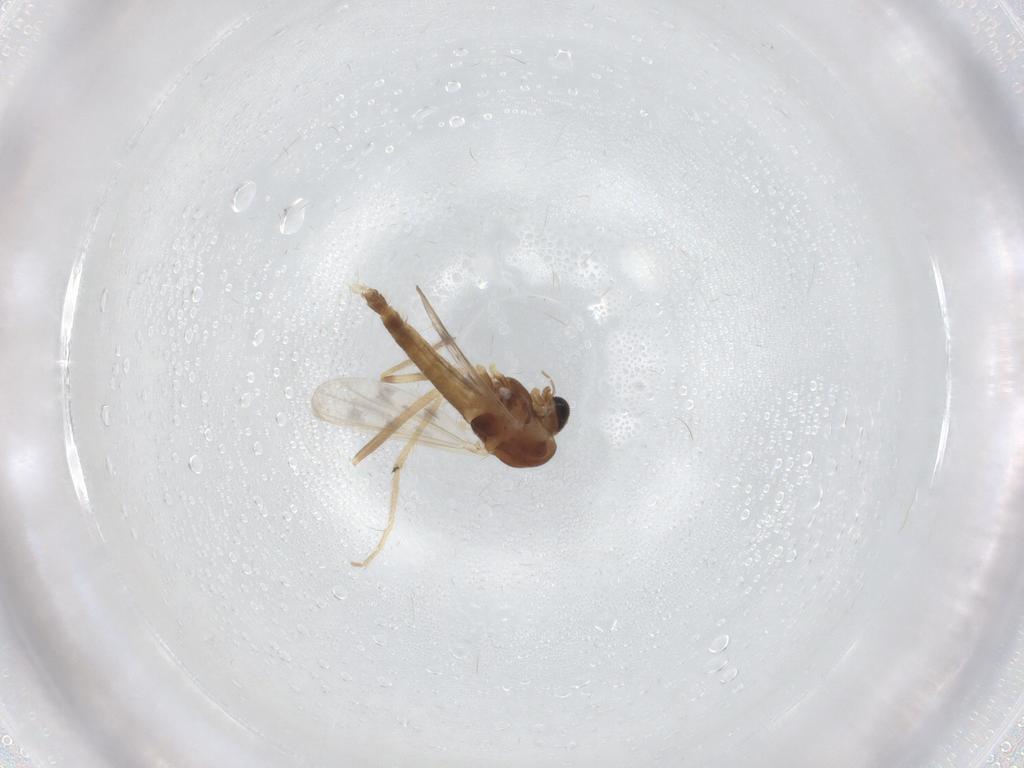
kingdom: Animalia
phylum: Arthropoda
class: Insecta
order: Diptera
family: Chironomidae
